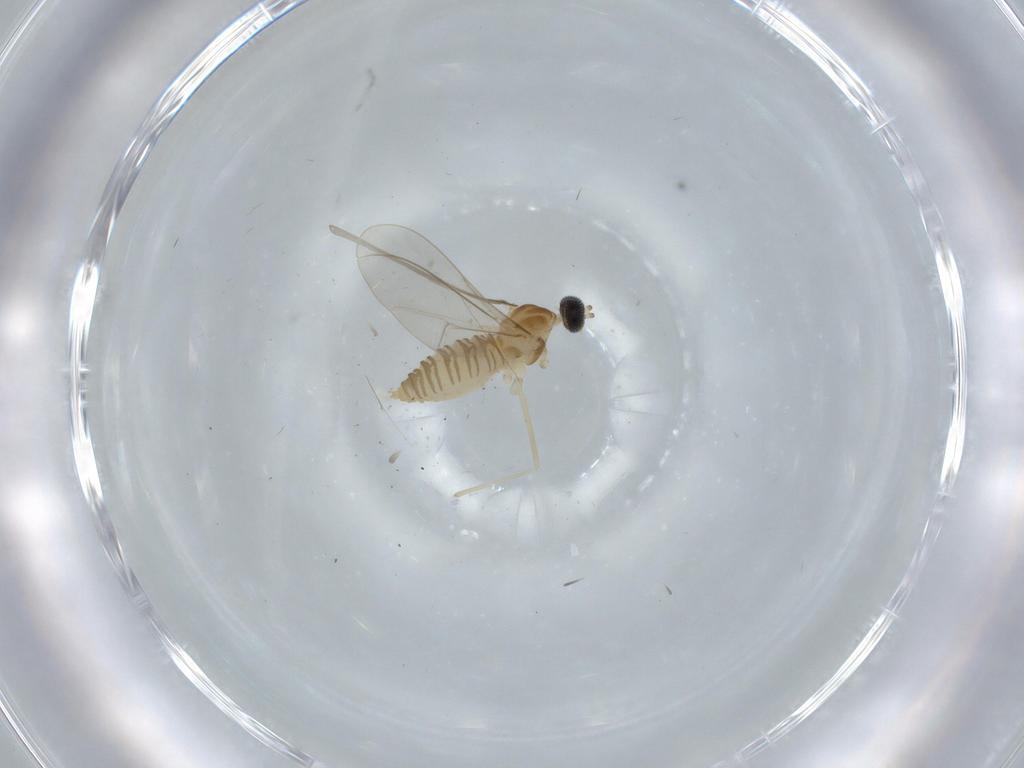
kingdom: Animalia
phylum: Arthropoda
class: Insecta
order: Diptera
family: Cecidomyiidae
